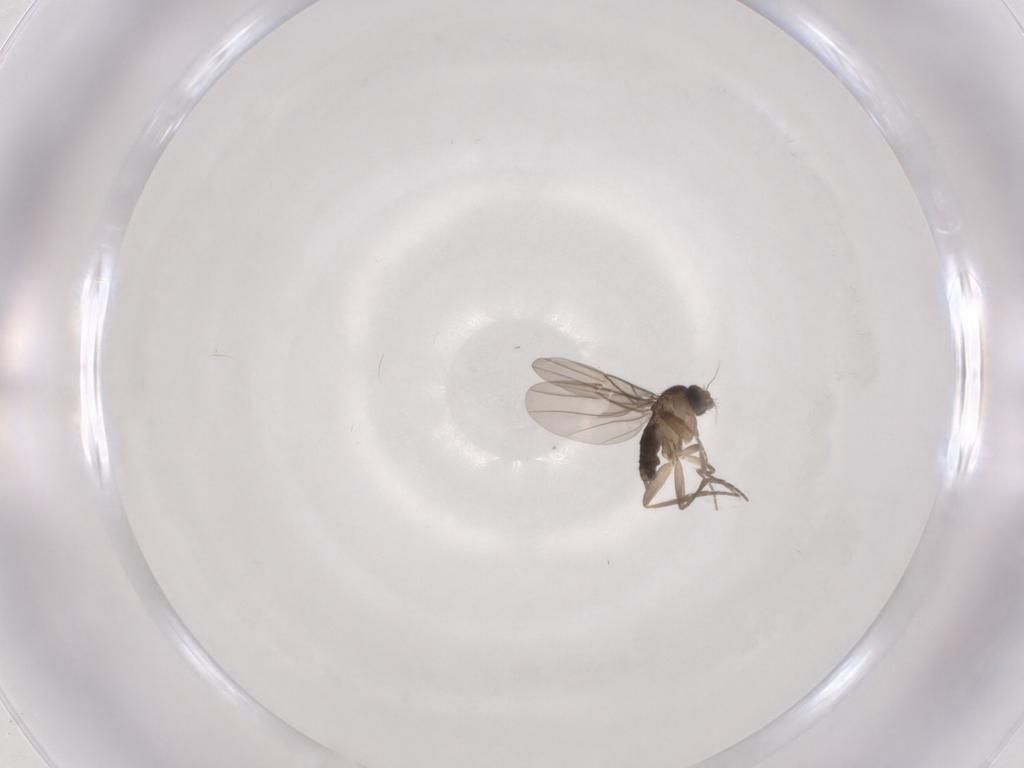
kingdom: Animalia
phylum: Arthropoda
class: Insecta
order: Diptera
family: Phoridae
